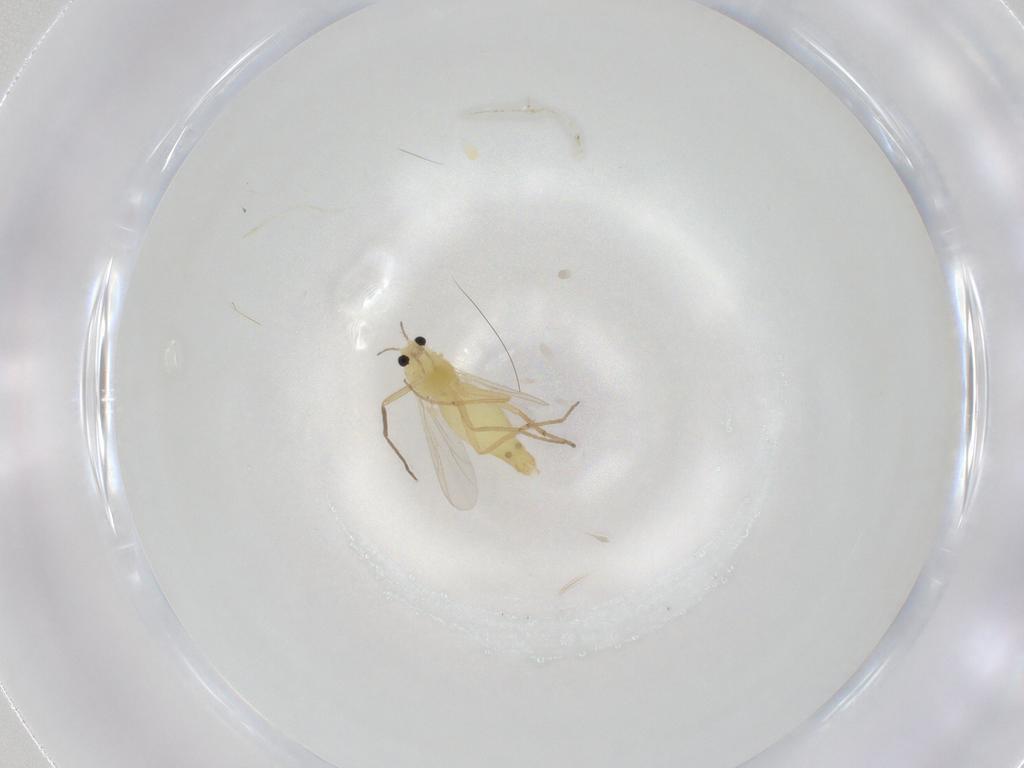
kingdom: Animalia
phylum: Arthropoda
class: Insecta
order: Diptera
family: Chironomidae
